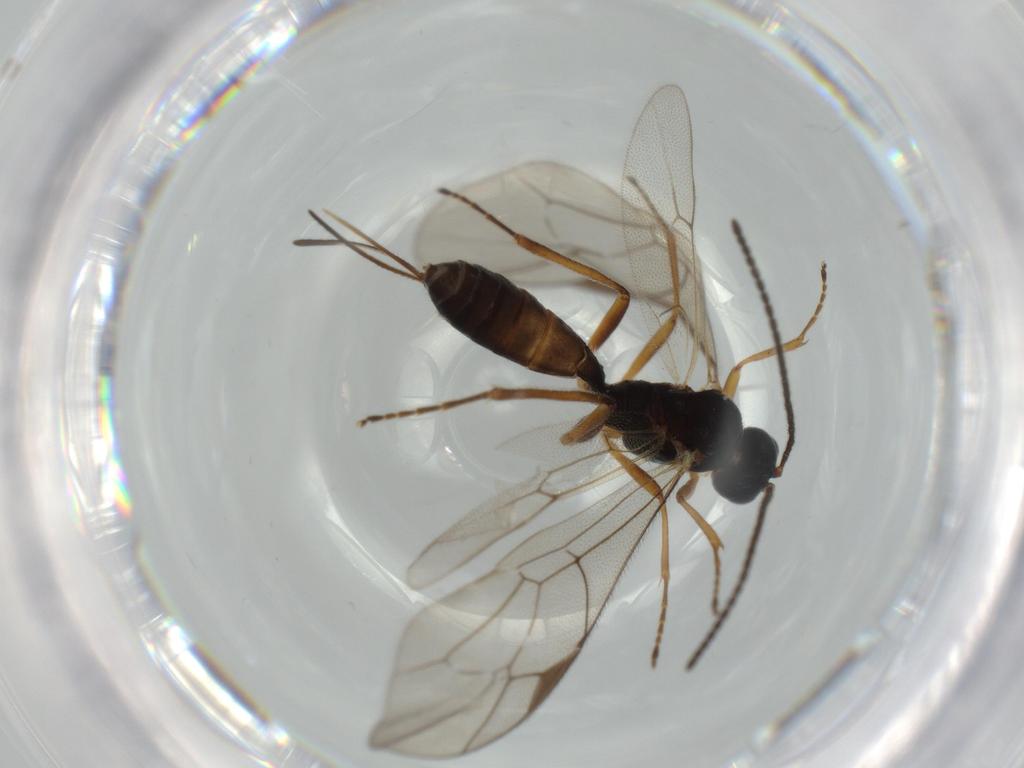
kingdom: Animalia
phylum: Arthropoda
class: Insecta
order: Hymenoptera
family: Ichneumonidae
